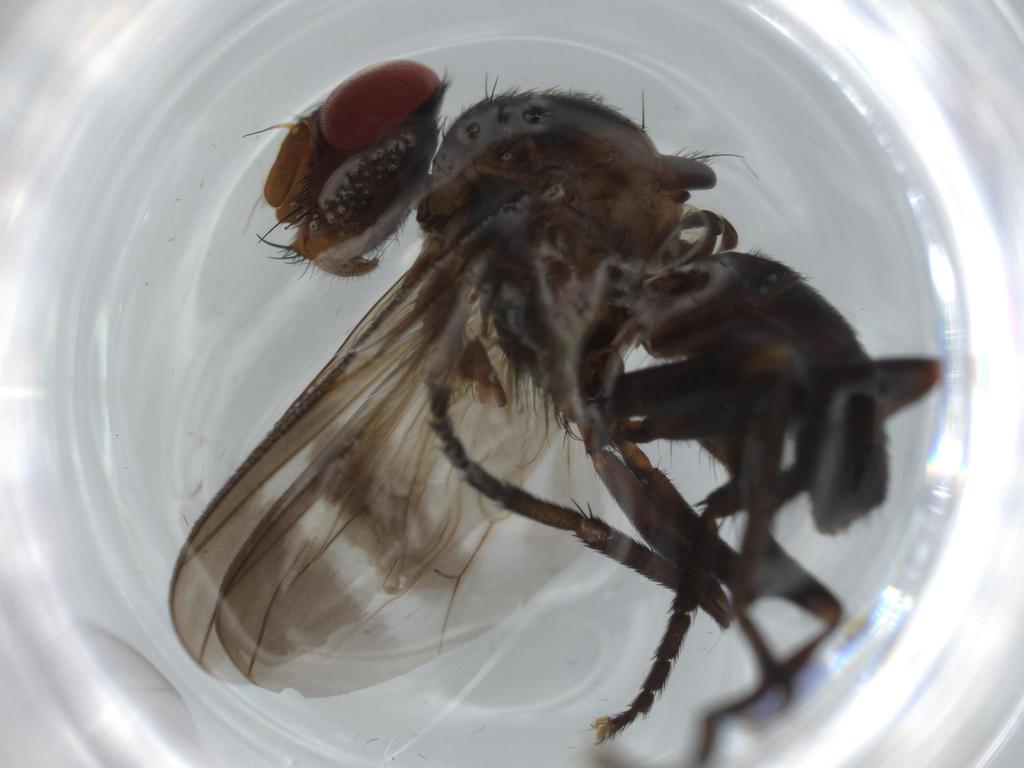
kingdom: Animalia
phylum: Arthropoda
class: Insecta
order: Diptera
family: Calliphoridae
